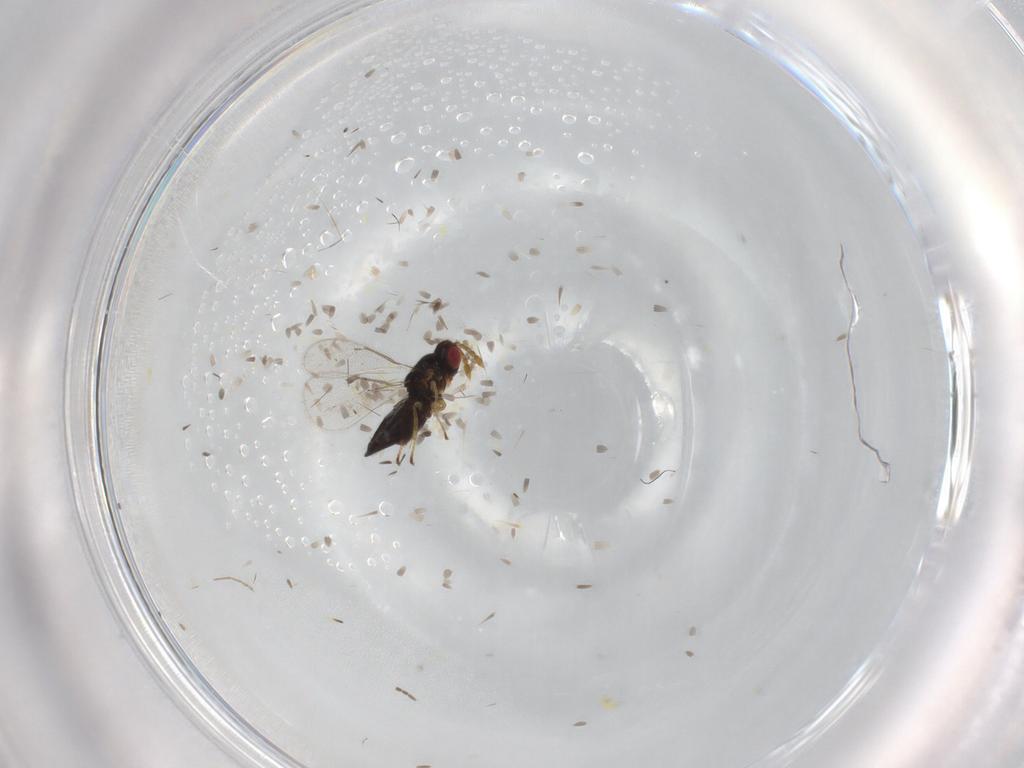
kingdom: Animalia
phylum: Arthropoda
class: Insecta
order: Hymenoptera
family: Eulophidae
